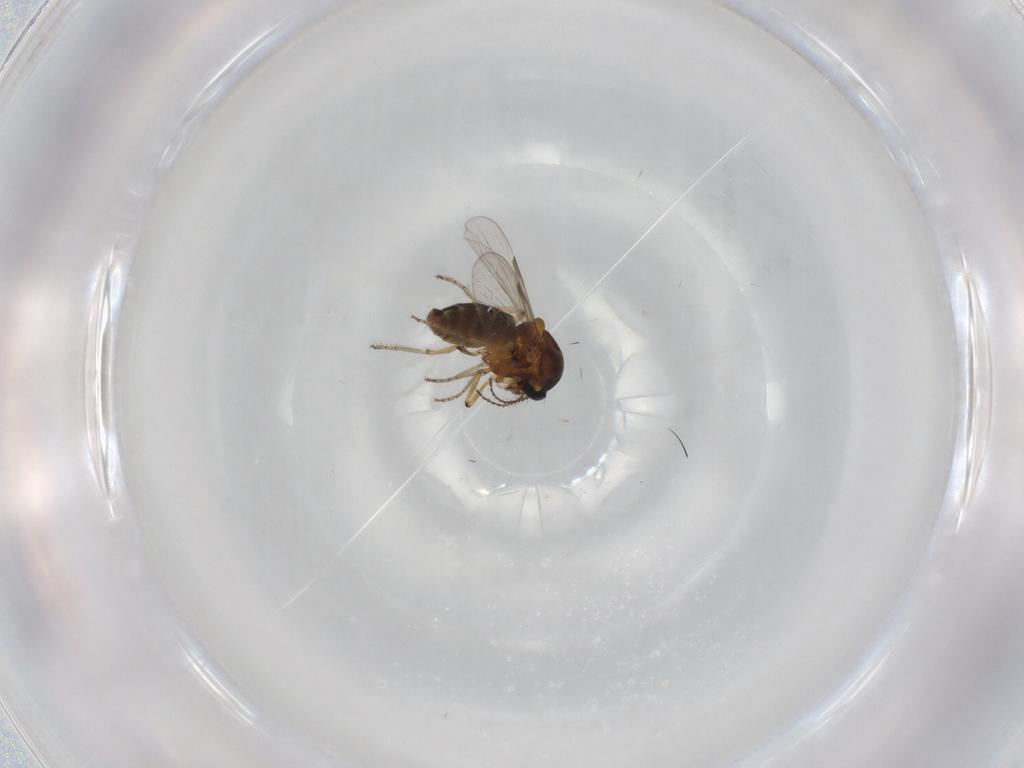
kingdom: Animalia
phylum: Arthropoda
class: Insecta
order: Diptera
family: Ceratopogonidae
